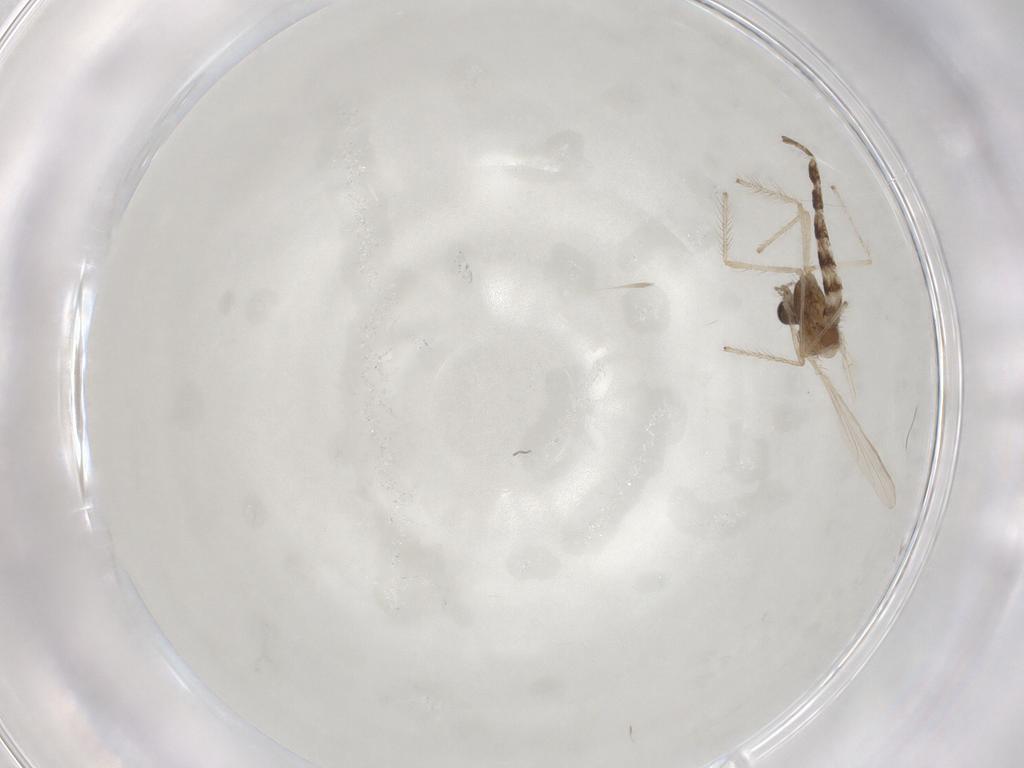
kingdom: Animalia
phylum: Arthropoda
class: Insecta
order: Diptera
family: Chironomidae
